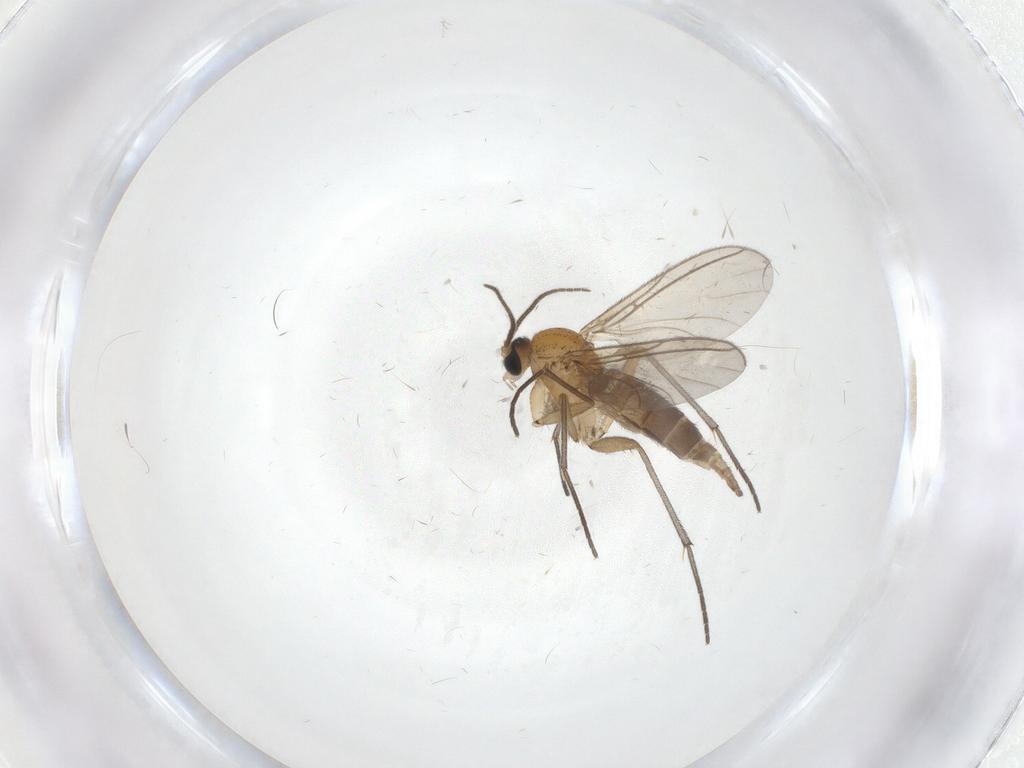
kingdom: Animalia
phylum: Arthropoda
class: Insecta
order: Diptera
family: Sciaridae
